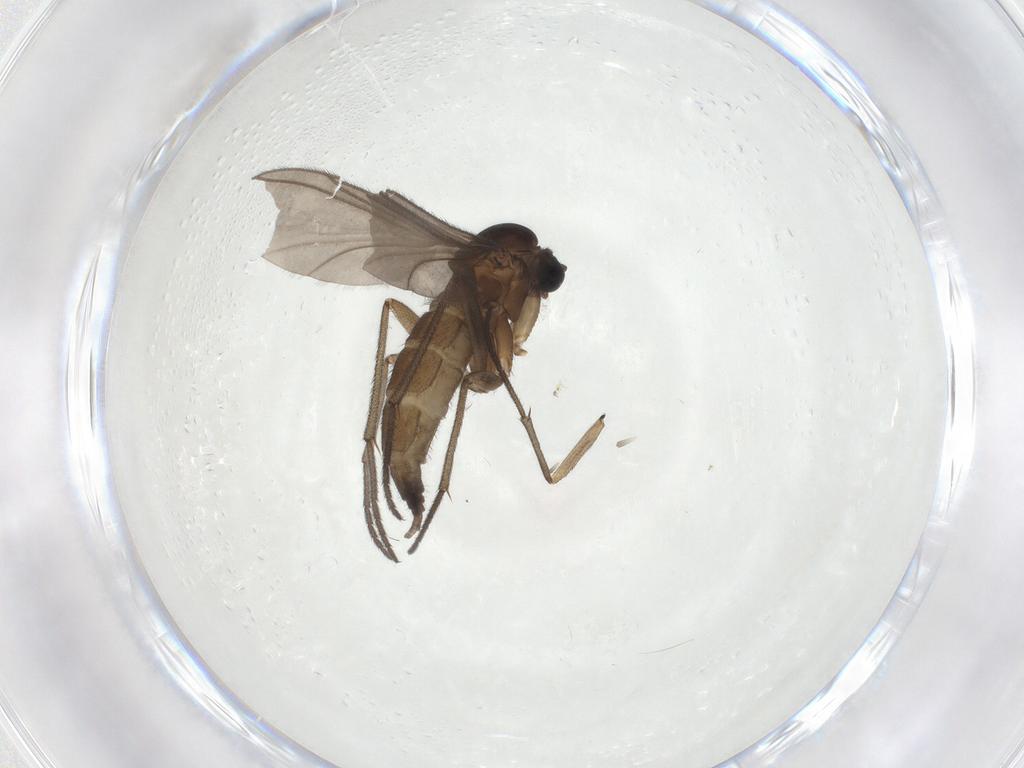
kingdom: Animalia
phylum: Arthropoda
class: Insecta
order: Diptera
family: Sciaridae
